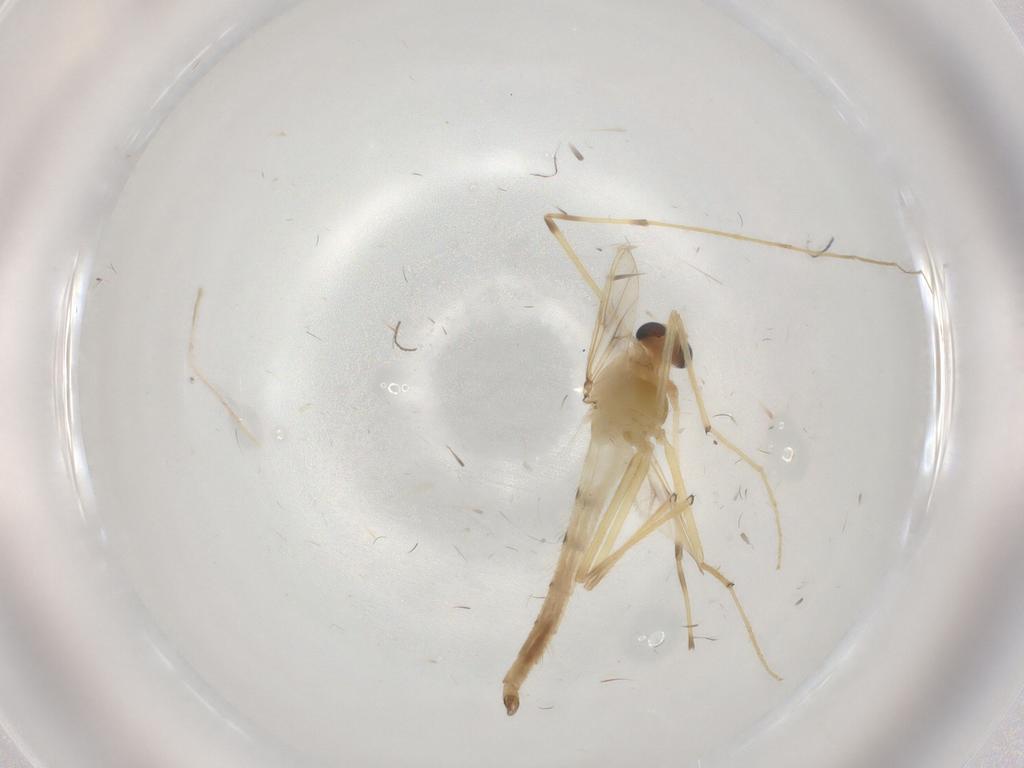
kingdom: Animalia
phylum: Arthropoda
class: Insecta
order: Diptera
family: Chironomidae
